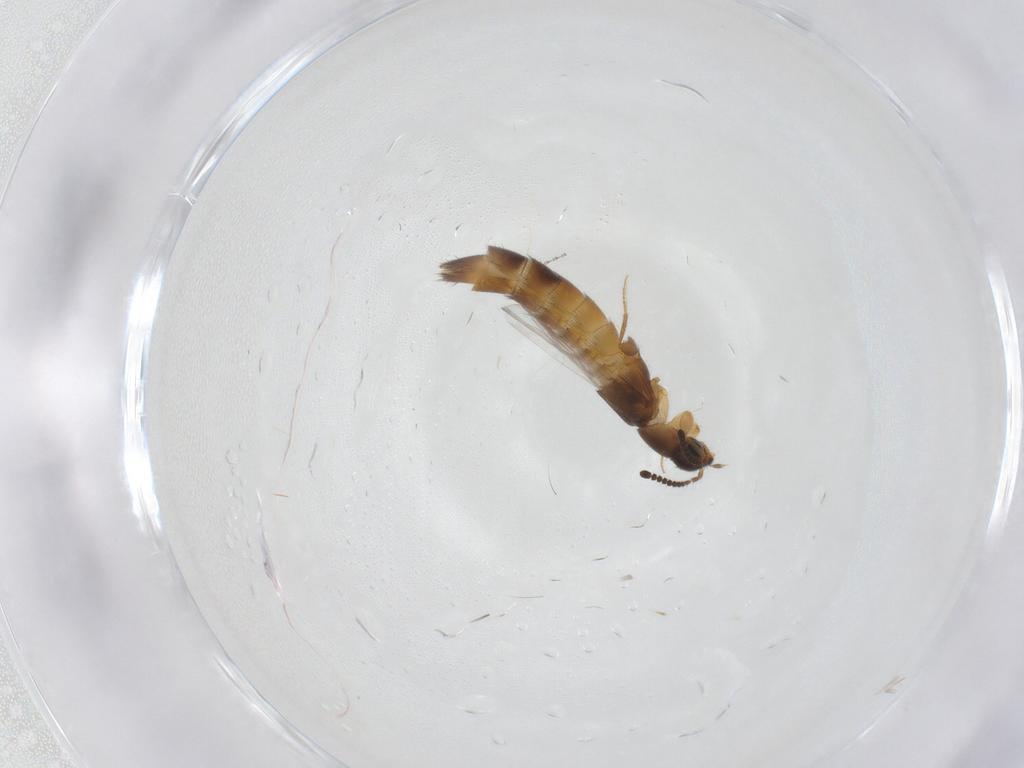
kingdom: Animalia
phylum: Arthropoda
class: Insecta
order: Coleoptera
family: Staphylinidae
